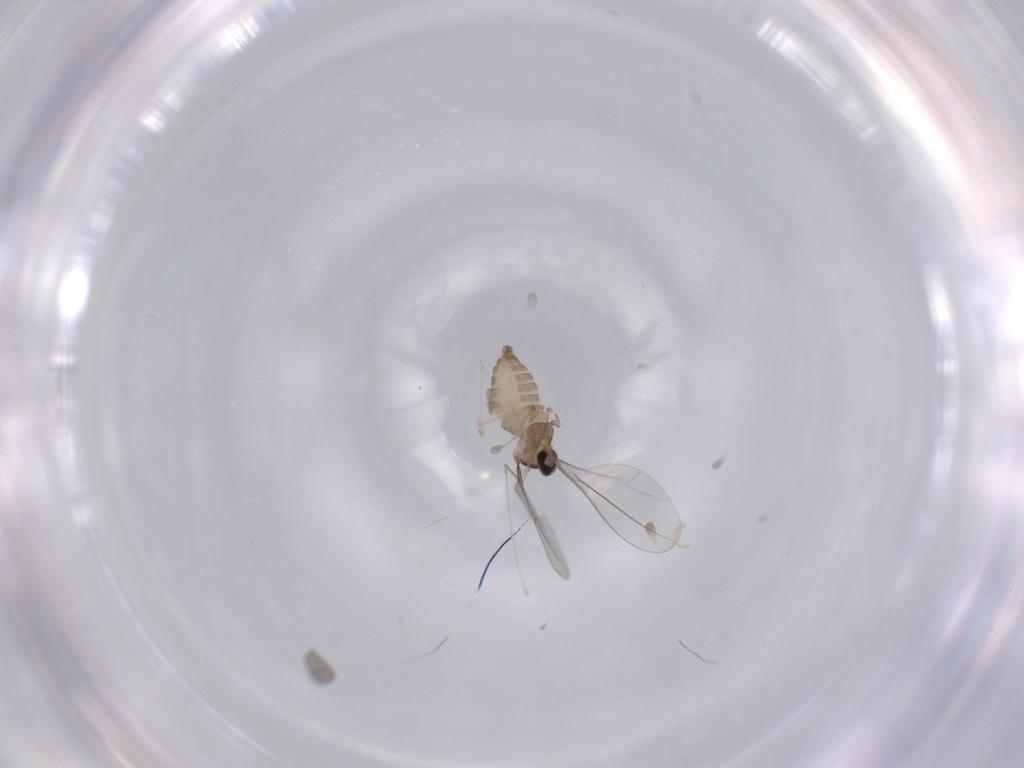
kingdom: Animalia
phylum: Arthropoda
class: Insecta
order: Diptera
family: Cecidomyiidae
